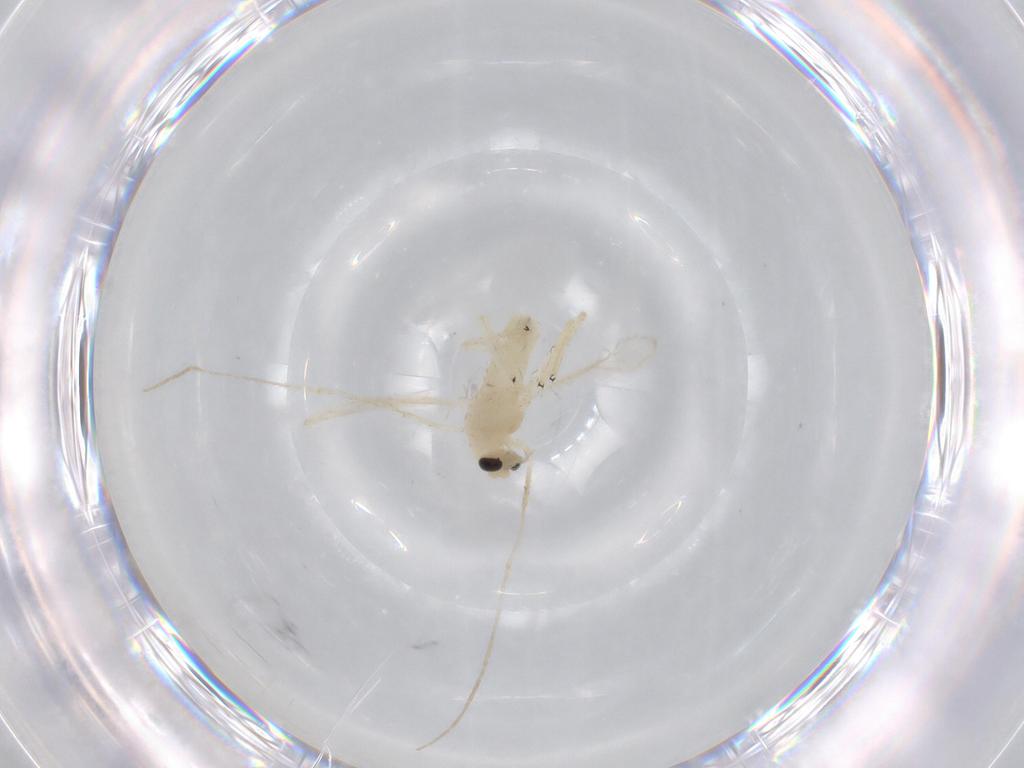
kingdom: Animalia
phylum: Arthropoda
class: Insecta
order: Diptera
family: Chironomidae
